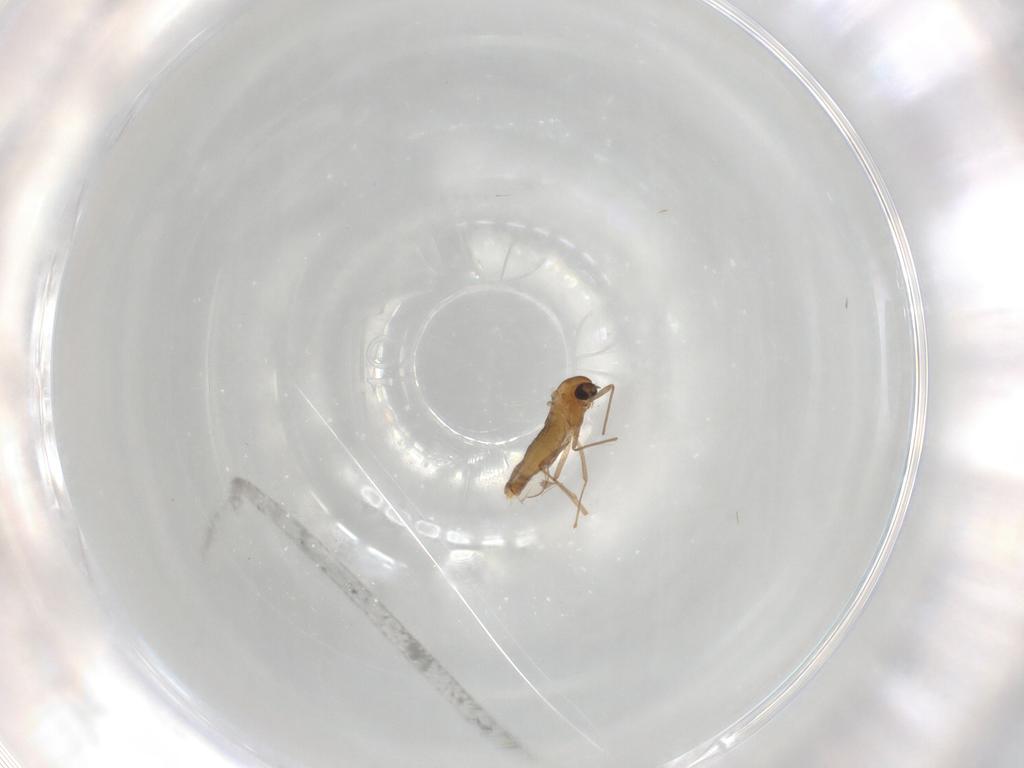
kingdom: Animalia
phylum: Arthropoda
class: Insecta
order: Diptera
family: Chironomidae
